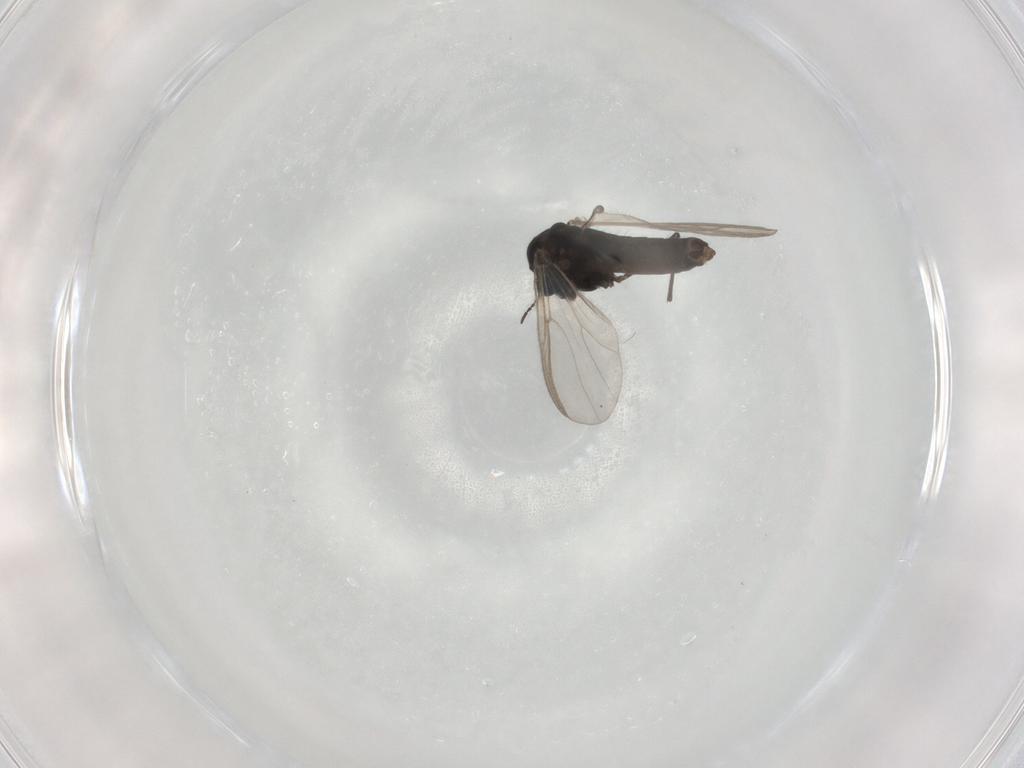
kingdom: Animalia
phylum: Arthropoda
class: Insecta
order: Diptera
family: Chironomidae
